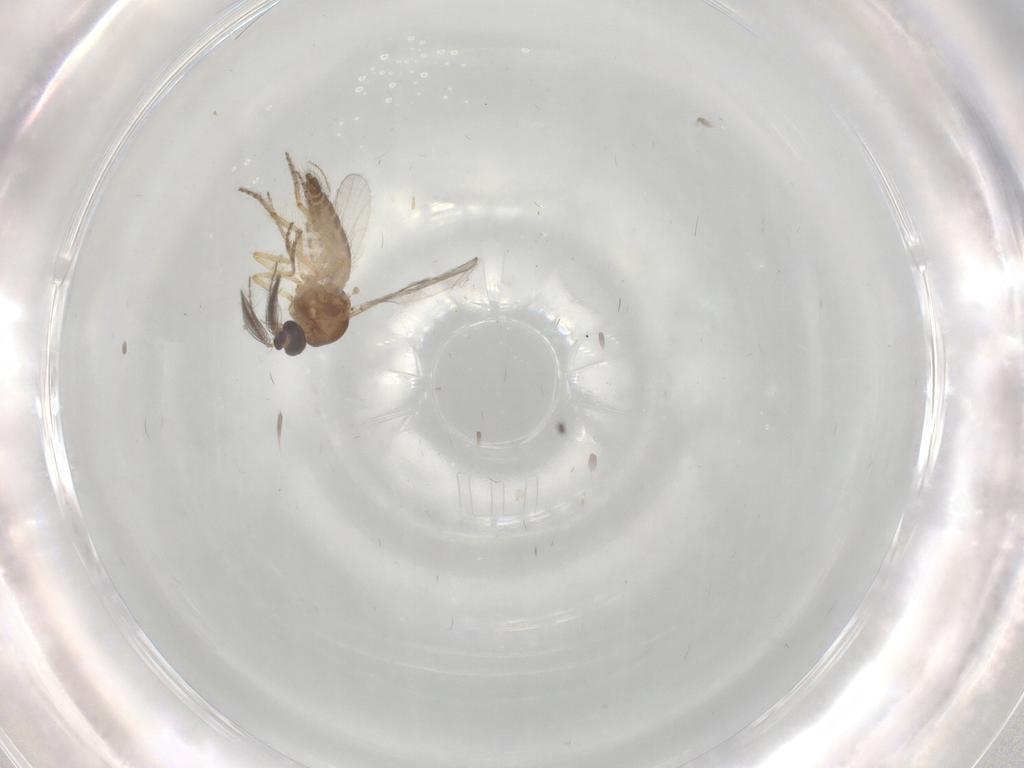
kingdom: Animalia
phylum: Arthropoda
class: Insecta
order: Diptera
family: Ceratopogonidae
